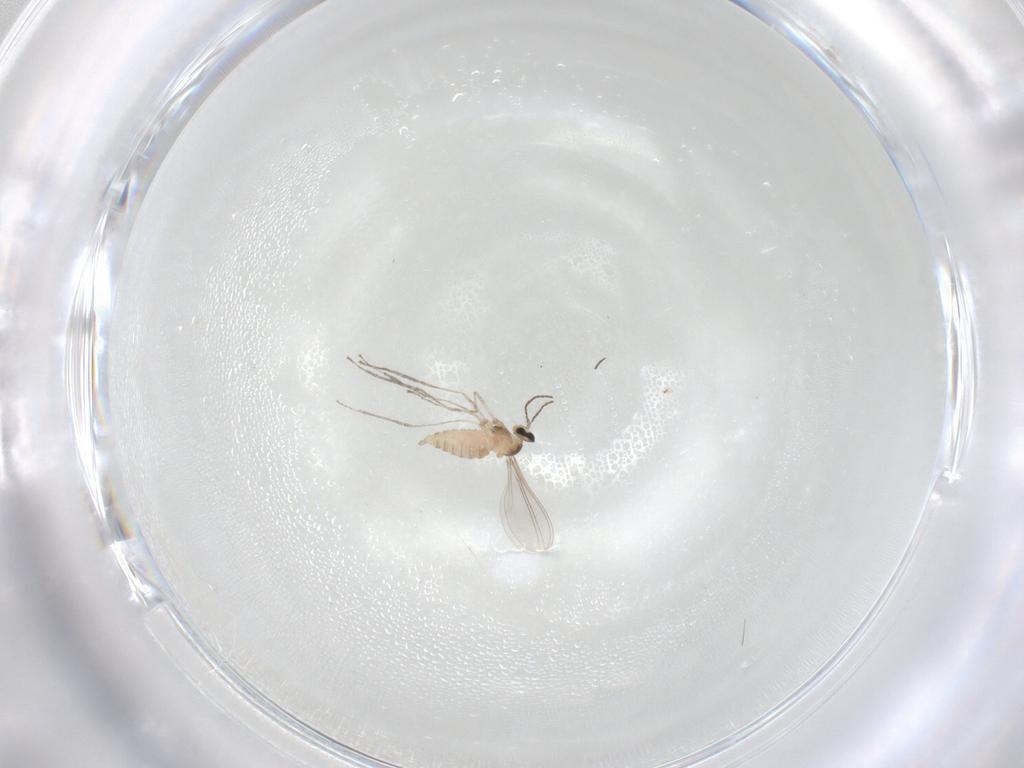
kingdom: Animalia
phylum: Arthropoda
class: Insecta
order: Diptera
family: Cecidomyiidae
